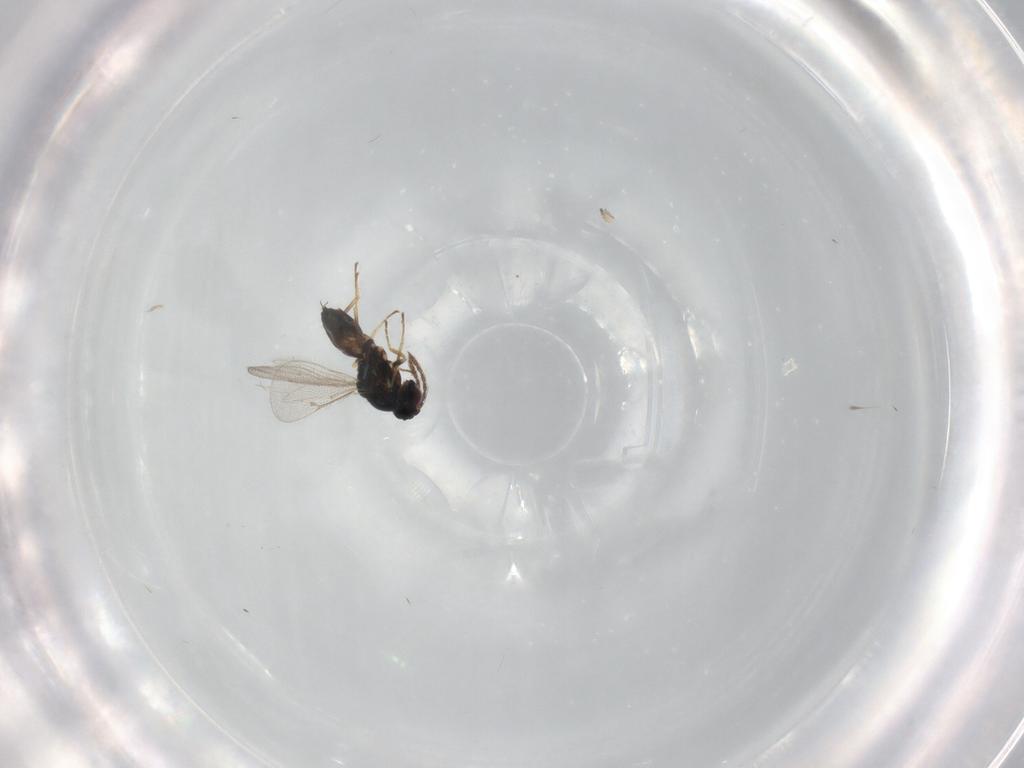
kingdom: Animalia
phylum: Arthropoda
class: Insecta
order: Hymenoptera
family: Eulophidae
